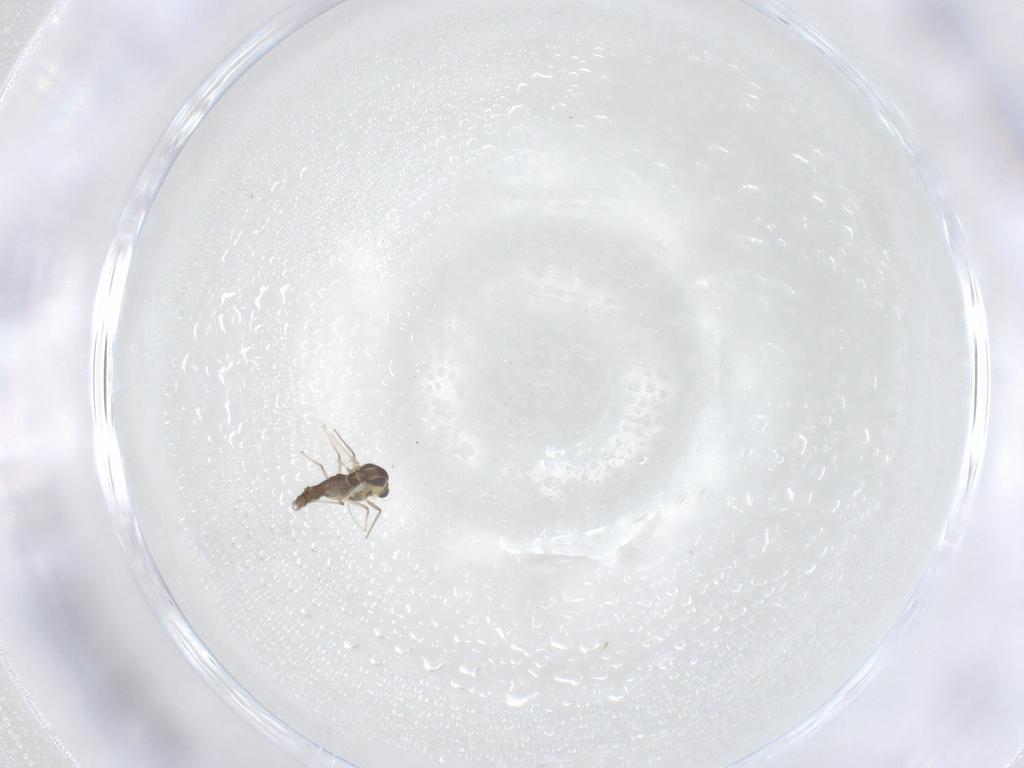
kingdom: Animalia
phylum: Arthropoda
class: Insecta
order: Diptera
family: Chironomidae
